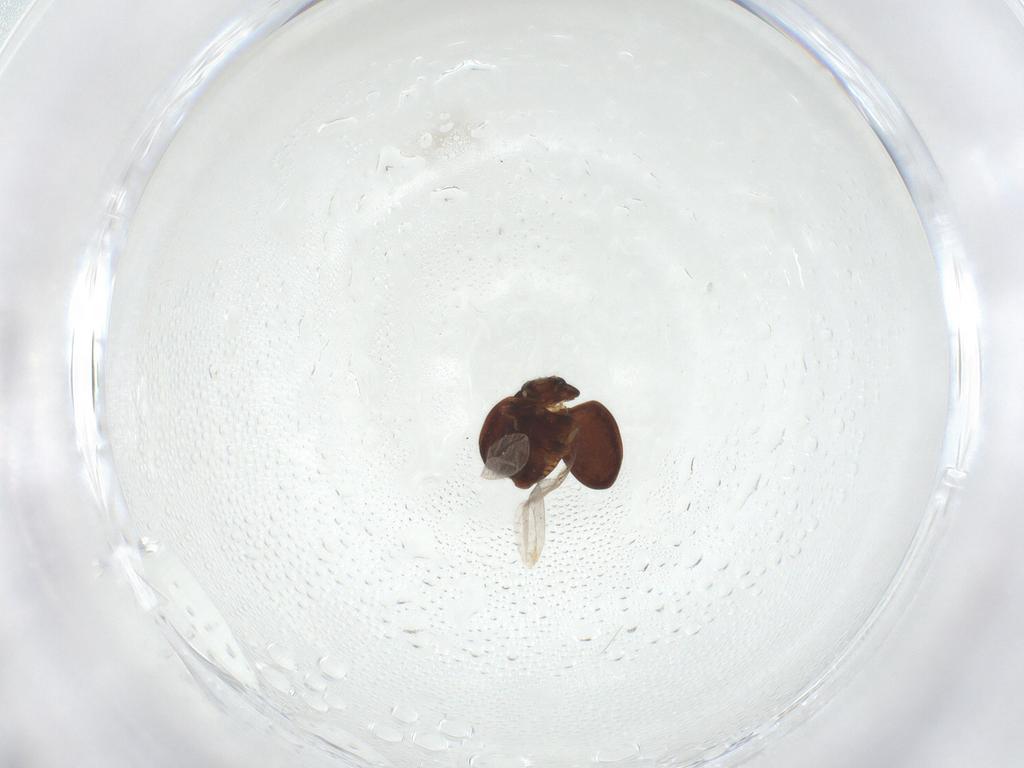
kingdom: Animalia
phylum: Arthropoda
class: Insecta
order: Coleoptera
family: Coccinellidae
